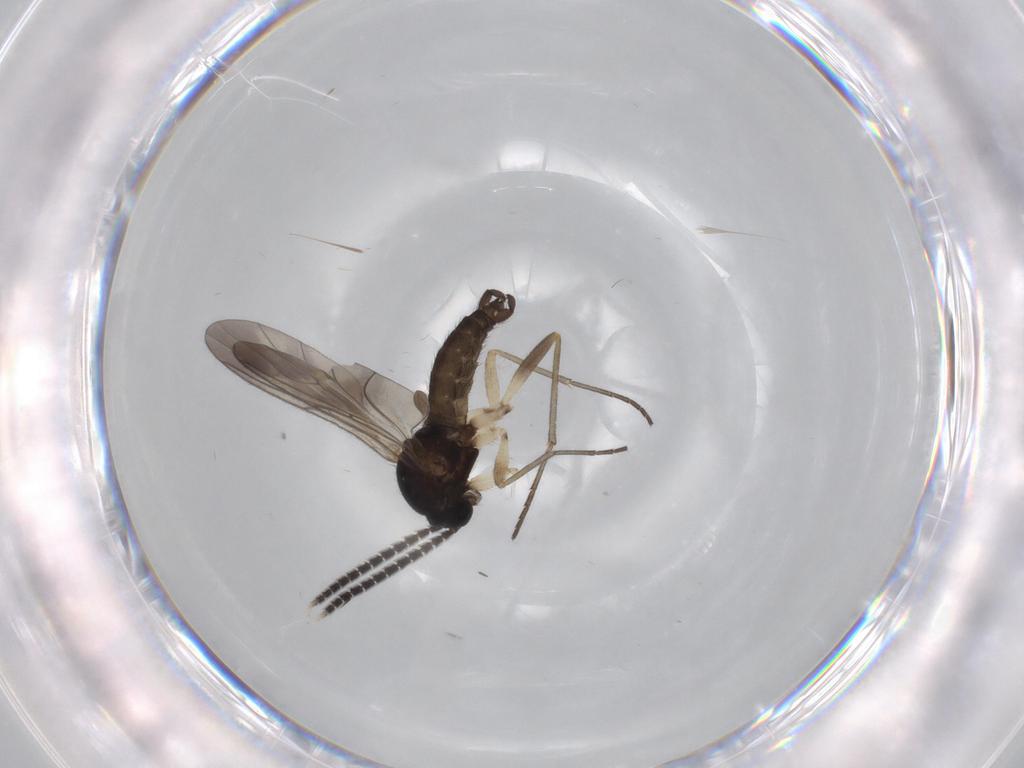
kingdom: Animalia
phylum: Arthropoda
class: Insecta
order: Diptera
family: Sciaridae
